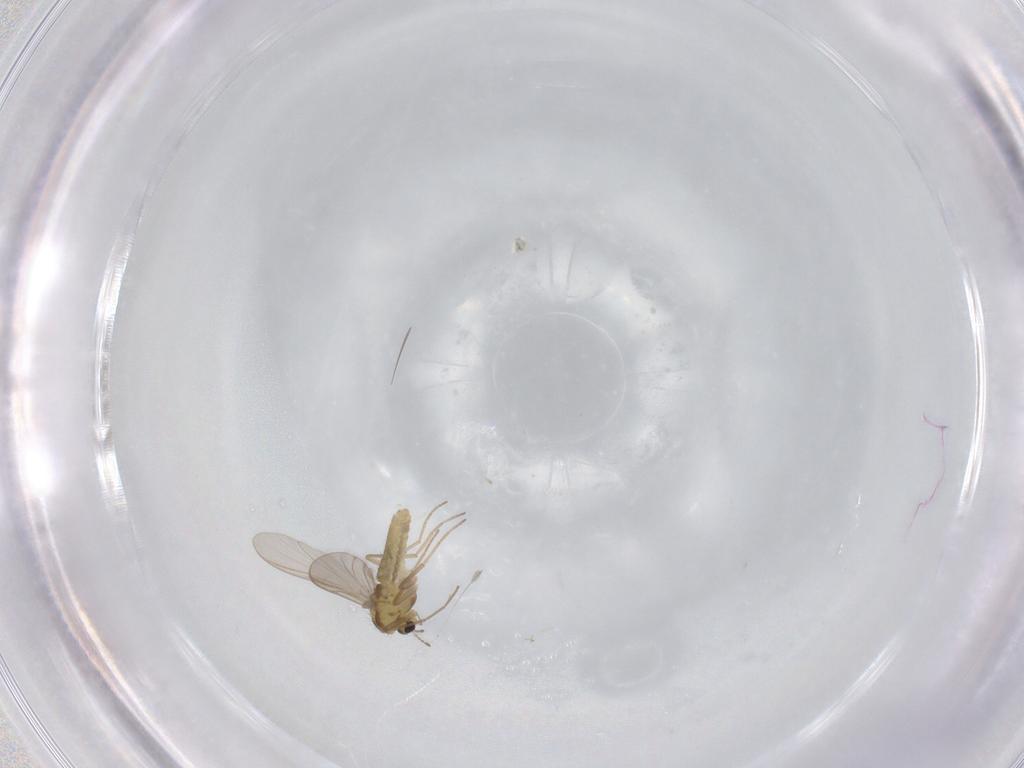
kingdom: Animalia
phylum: Arthropoda
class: Insecta
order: Diptera
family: Chironomidae
